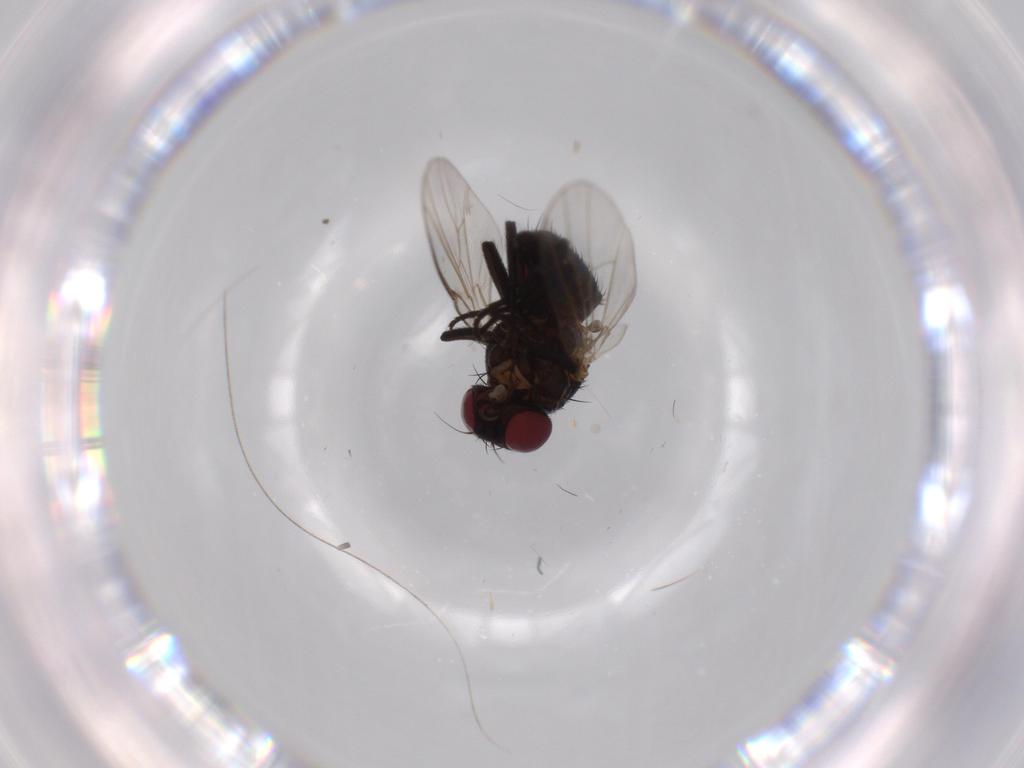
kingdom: Animalia
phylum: Arthropoda
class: Insecta
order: Diptera
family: Agromyzidae
